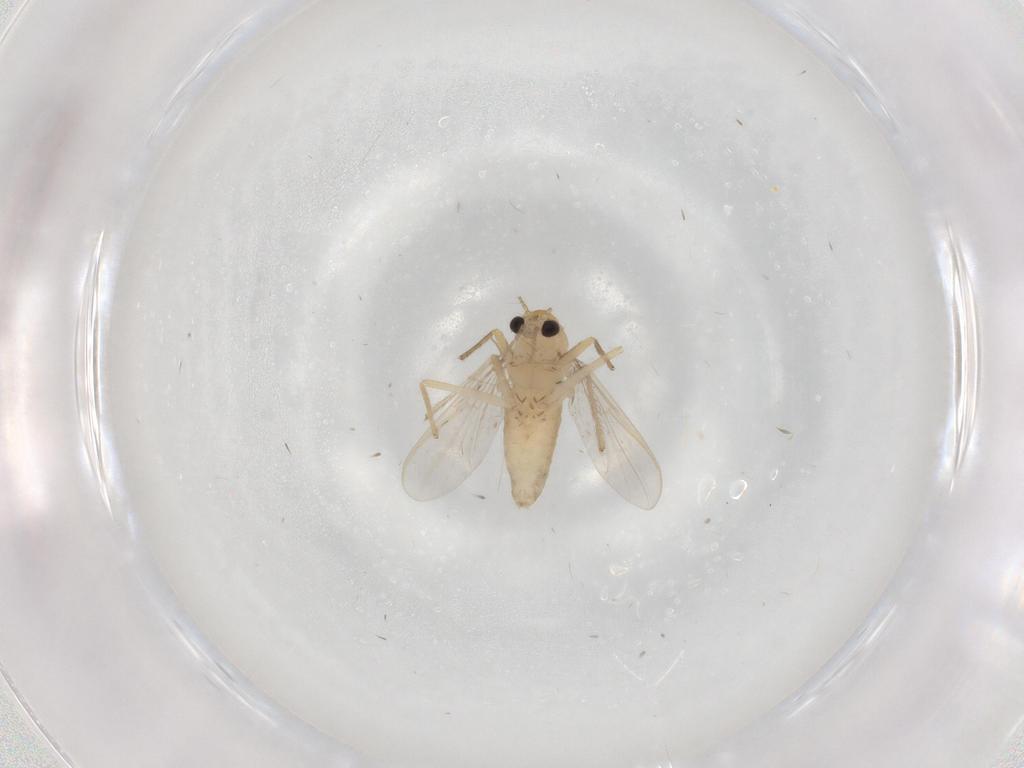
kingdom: Animalia
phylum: Arthropoda
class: Insecta
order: Diptera
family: Chironomidae
